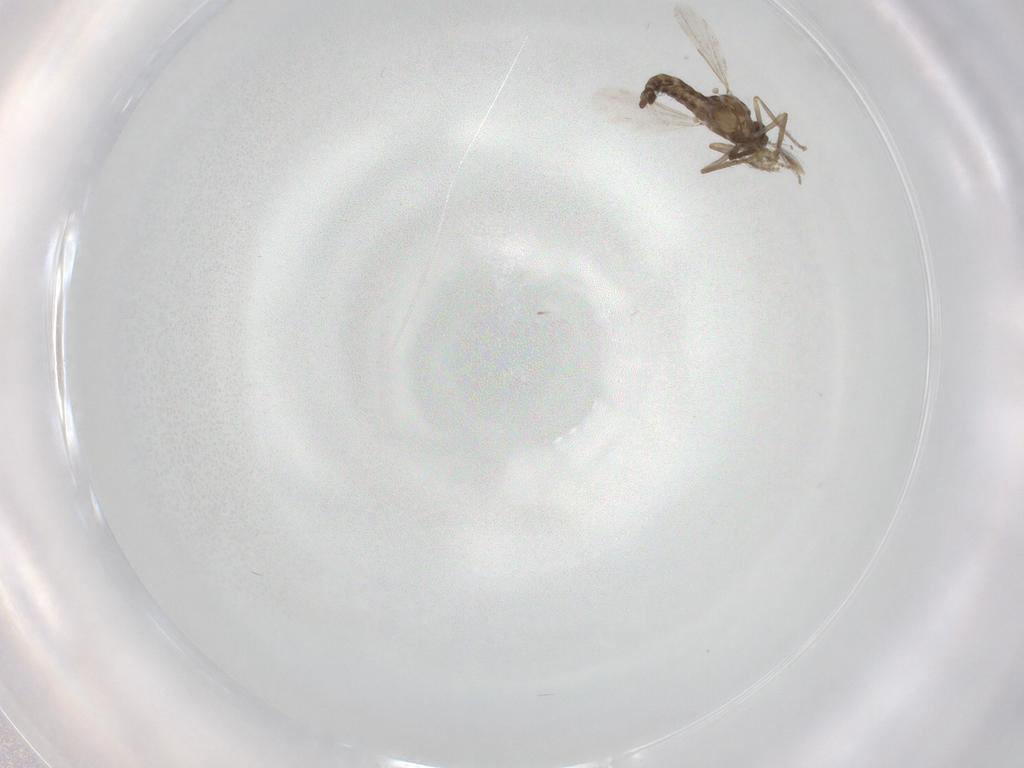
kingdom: Animalia
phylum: Arthropoda
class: Insecta
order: Diptera
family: Ceratopogonidae
